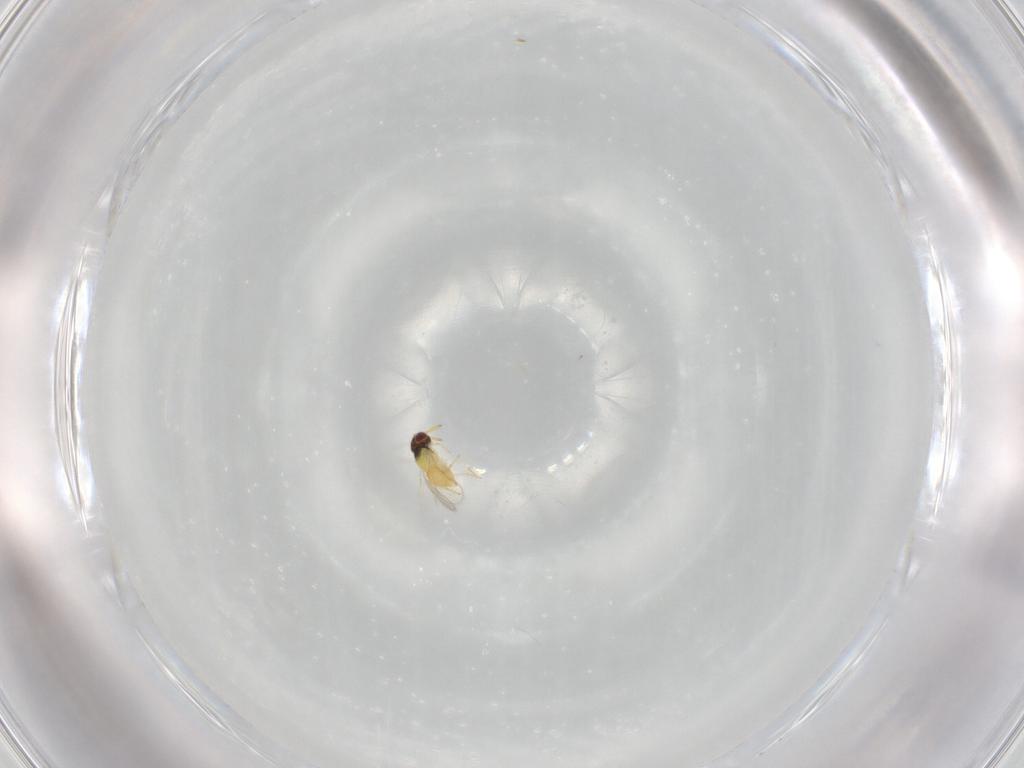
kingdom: Animalia
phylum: Arthropoda
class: Insecta
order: Hymenoptera
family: Aphelinidae
